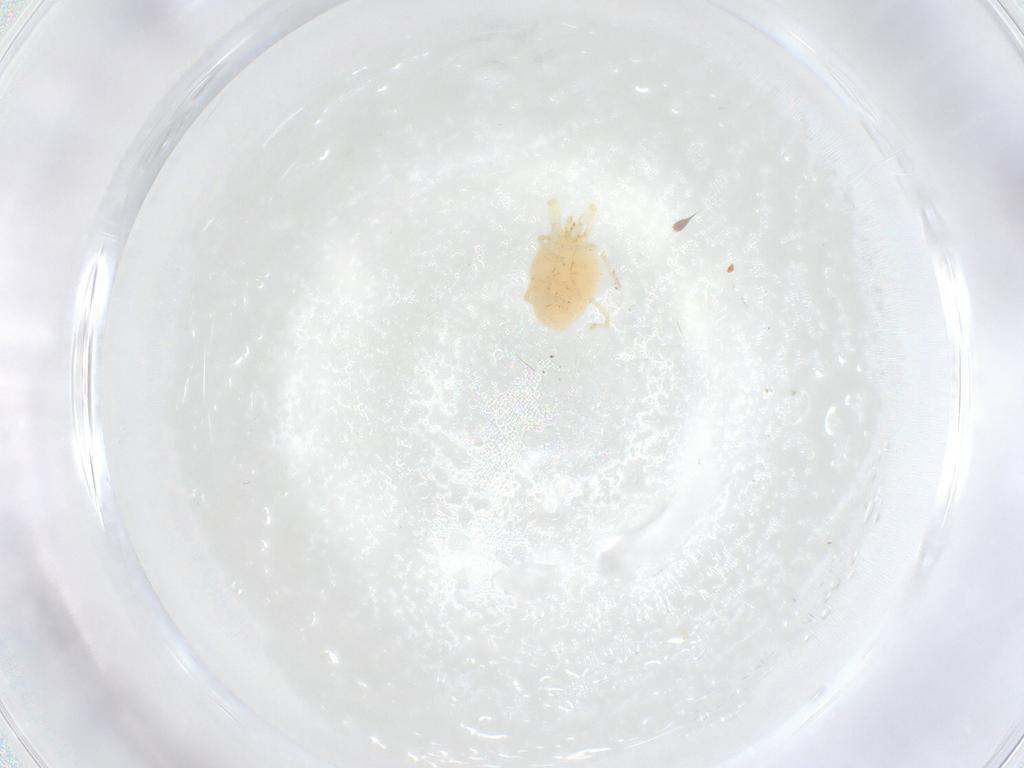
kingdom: Animalia
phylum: Arthropoda
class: Arachnida
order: Trombidiformes
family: Erythraeidae
